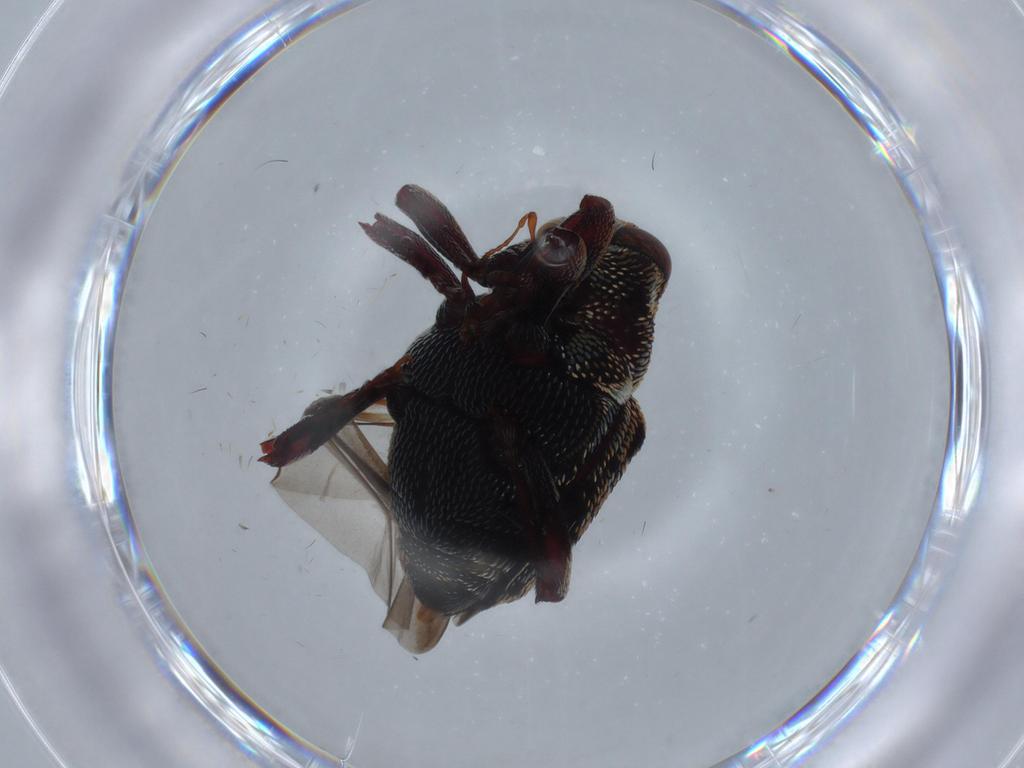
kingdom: Animalia
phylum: Arthropoda
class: Insecta
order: Coleoptera
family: Curculionidae
